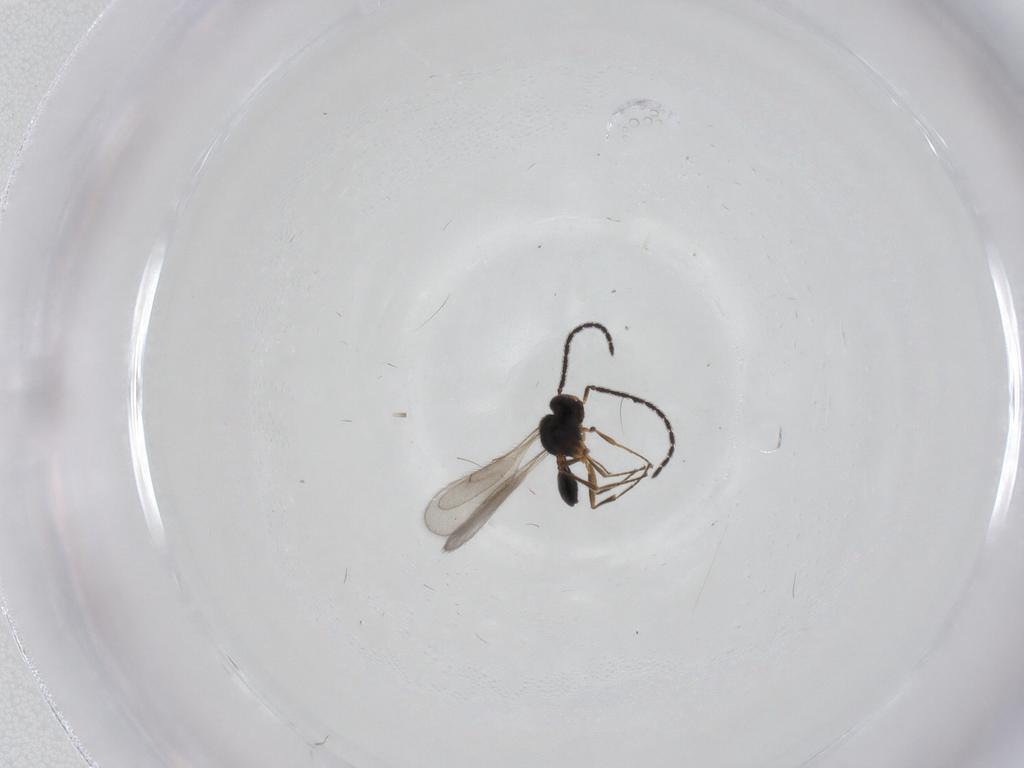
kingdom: Animalia
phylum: Arthropoda
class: Insecta
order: Hymenoptera
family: Scelionidae
